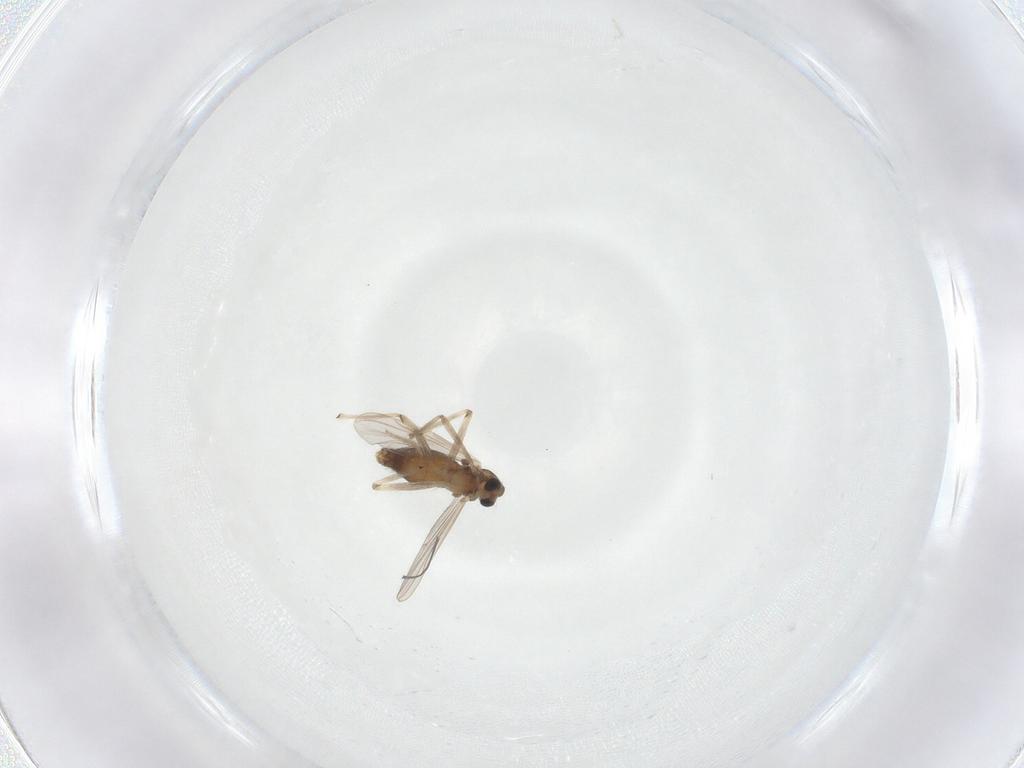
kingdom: Animalia
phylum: Arthropoda
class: Insecta
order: Diptera
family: Chironomidae
